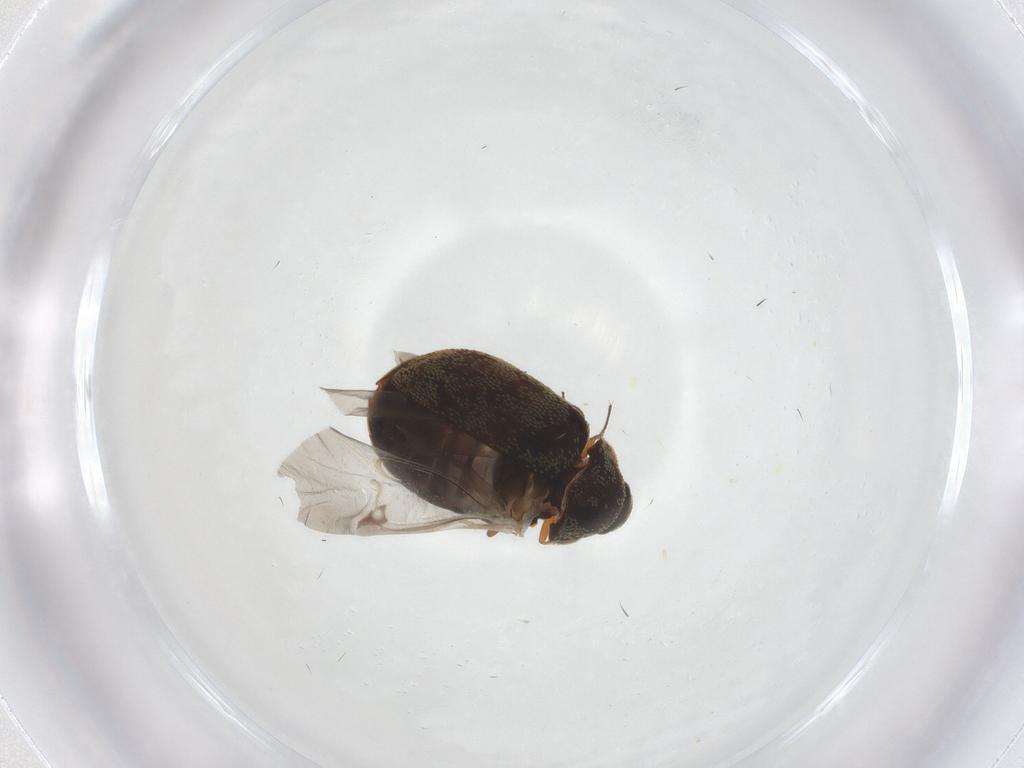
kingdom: Animalia
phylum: Arthropoda
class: Insecta
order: Coleoptera
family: Dermestidae
